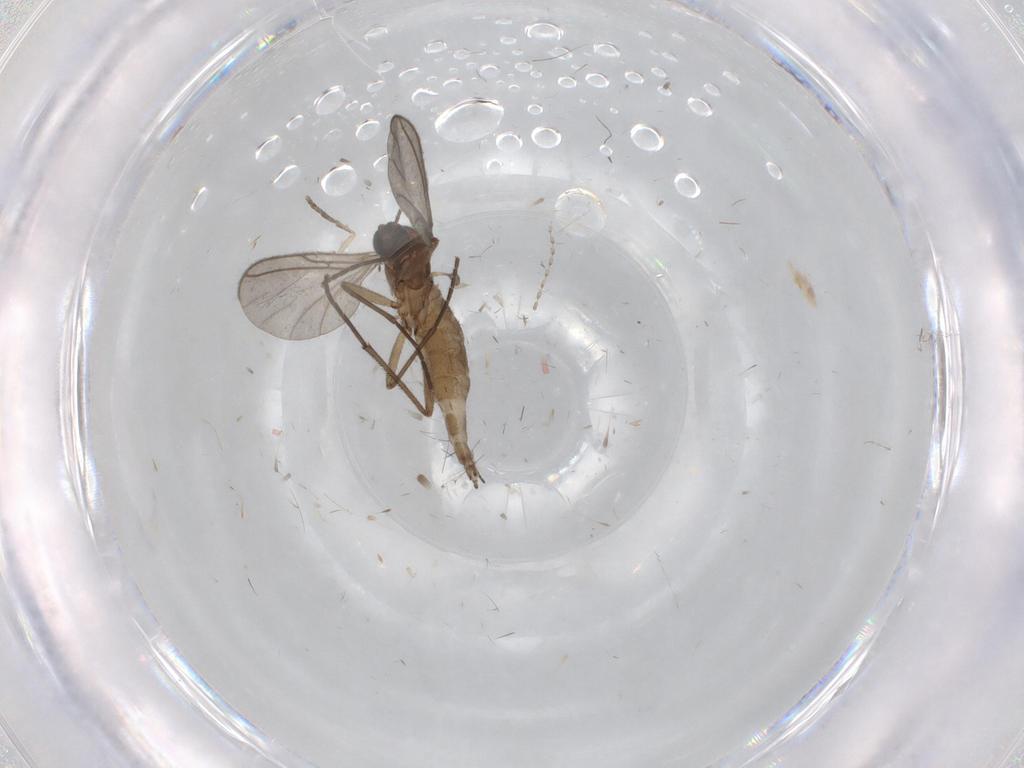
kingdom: Animalia
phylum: Arthropoda
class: Insecta
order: Diptera
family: Sciaridae
